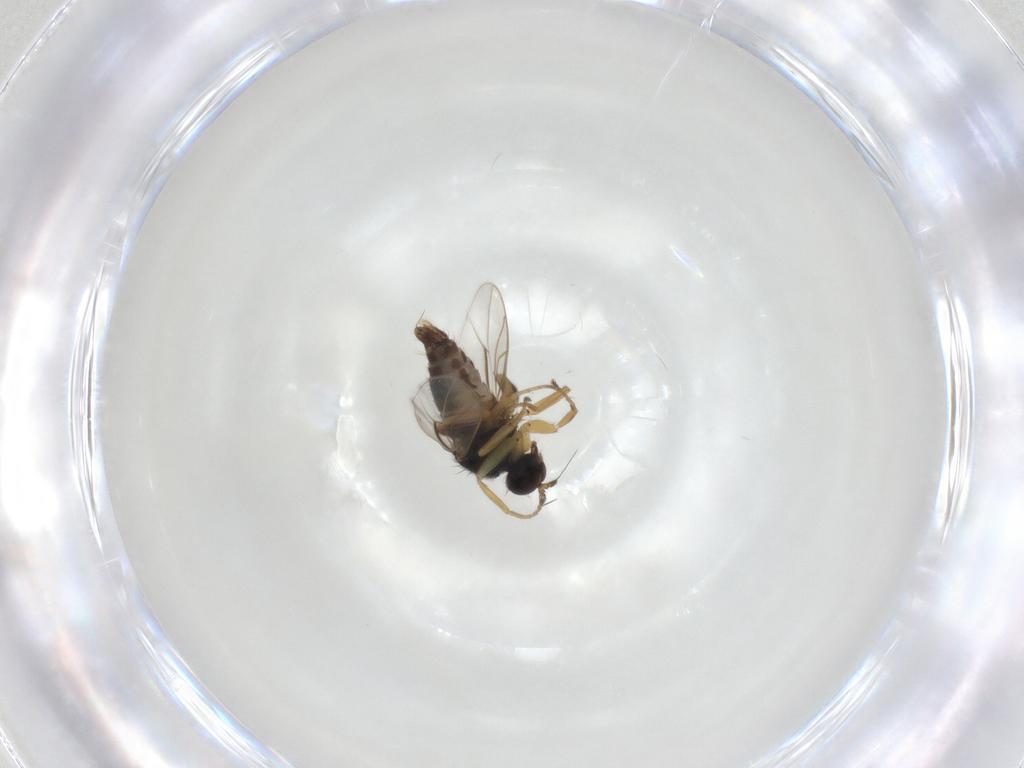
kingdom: Animalia
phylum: Arthropoda
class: Insecta
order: Diptera
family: Hybotidae
